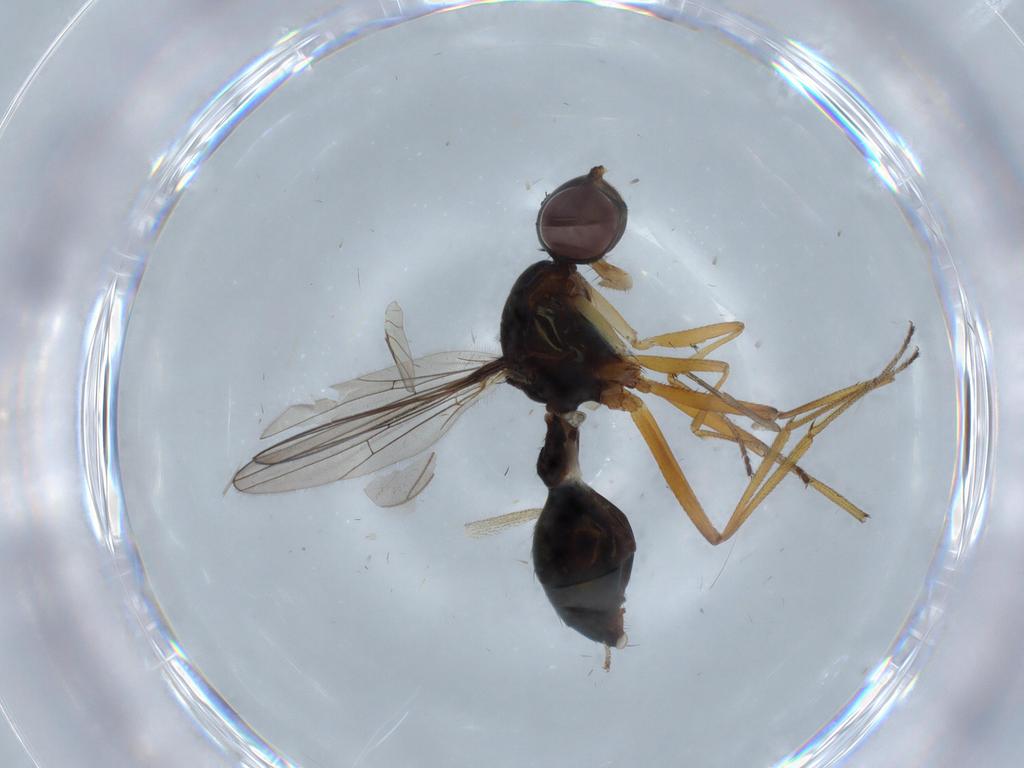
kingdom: Animalia
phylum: Arthropoda
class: Insecta
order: Diptera
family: Phoridae
